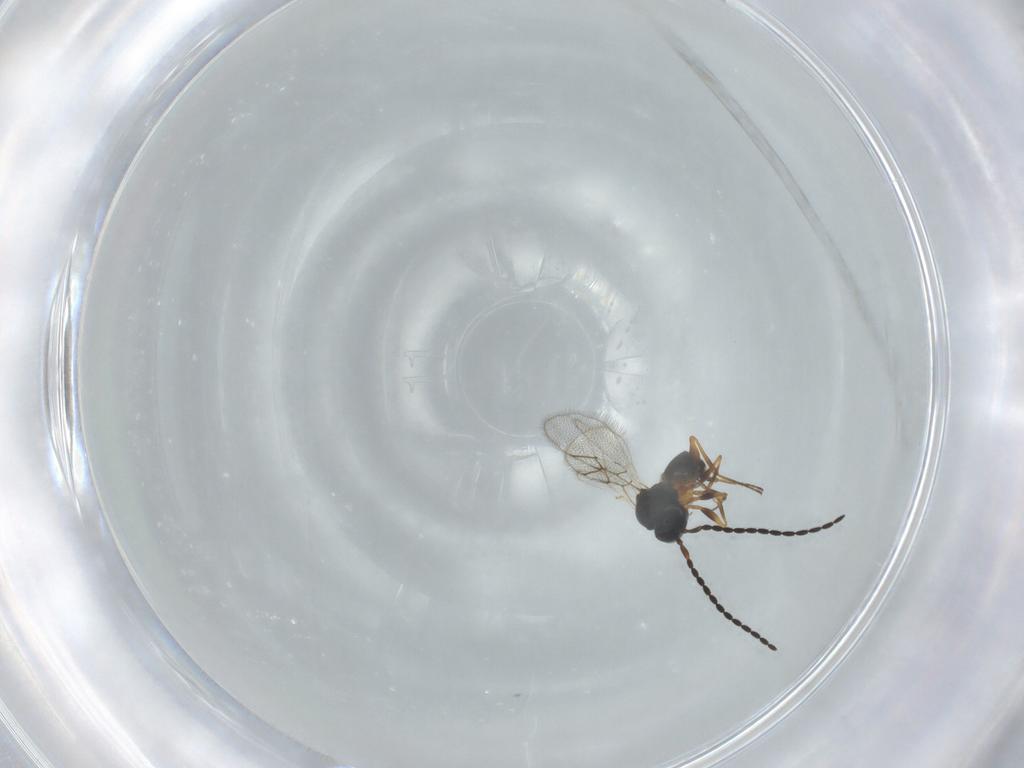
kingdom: Animalia
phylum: Arthropoda
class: Insecta
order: Hymenoptera
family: Figitidae
